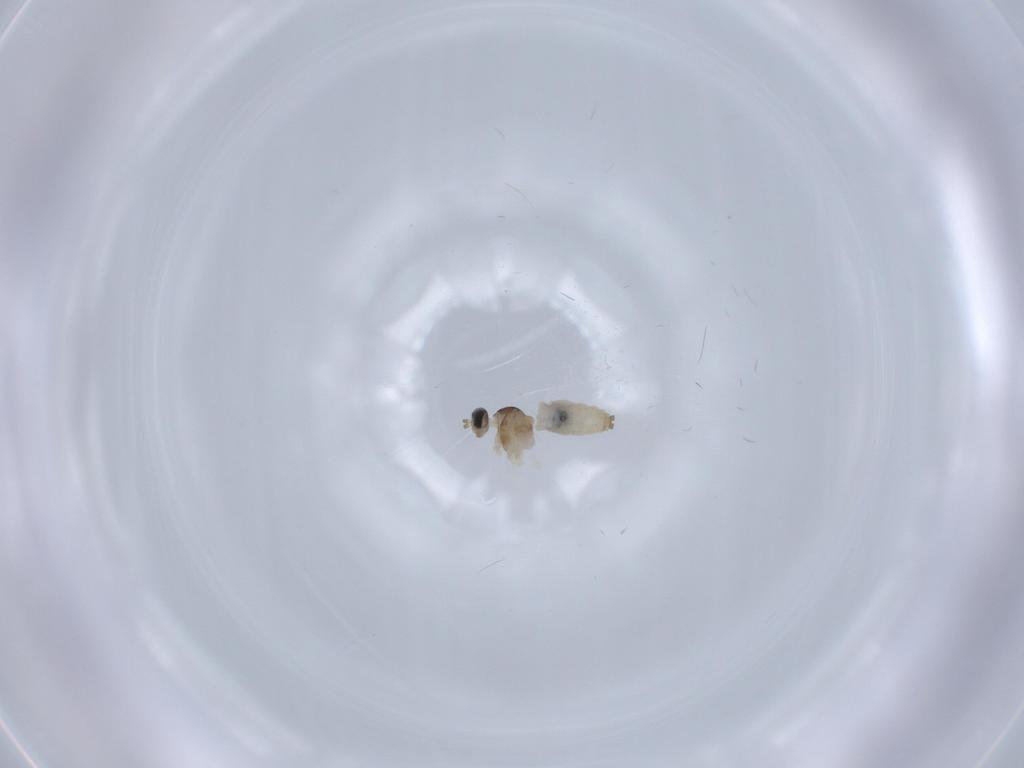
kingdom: Animalia
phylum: Arthropoda
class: Insecta
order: Diptera
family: Cecidomyiidae
